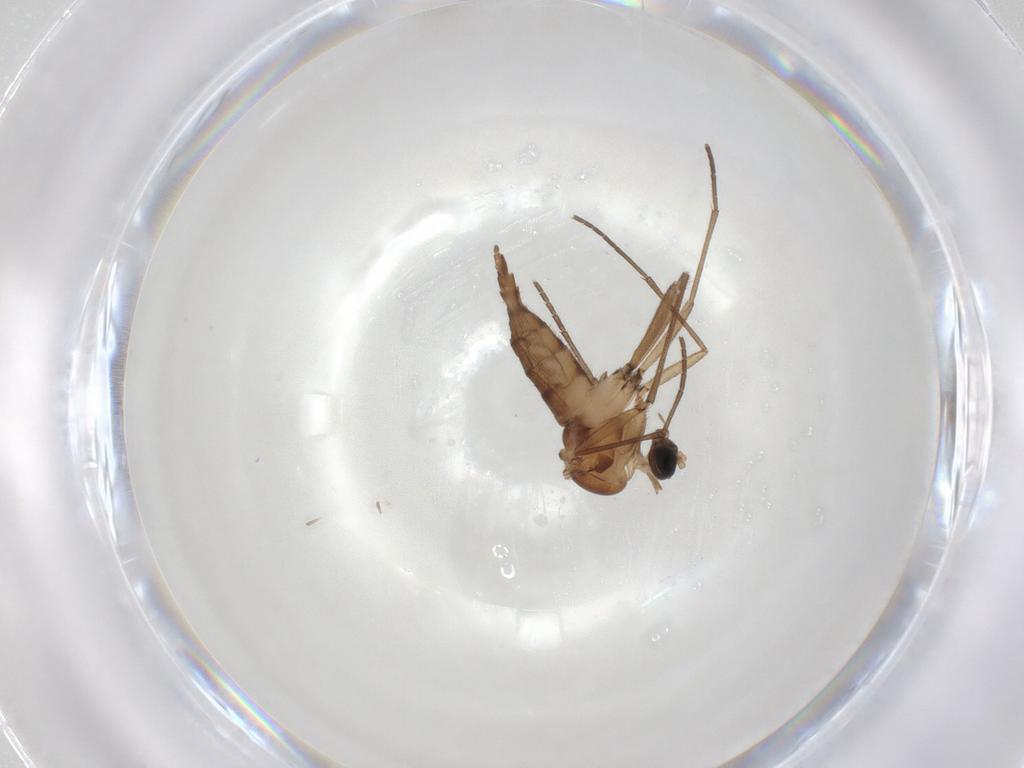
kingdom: Animalia
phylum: Arthropoda
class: Insecta
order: Diptera
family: Sciaridae
